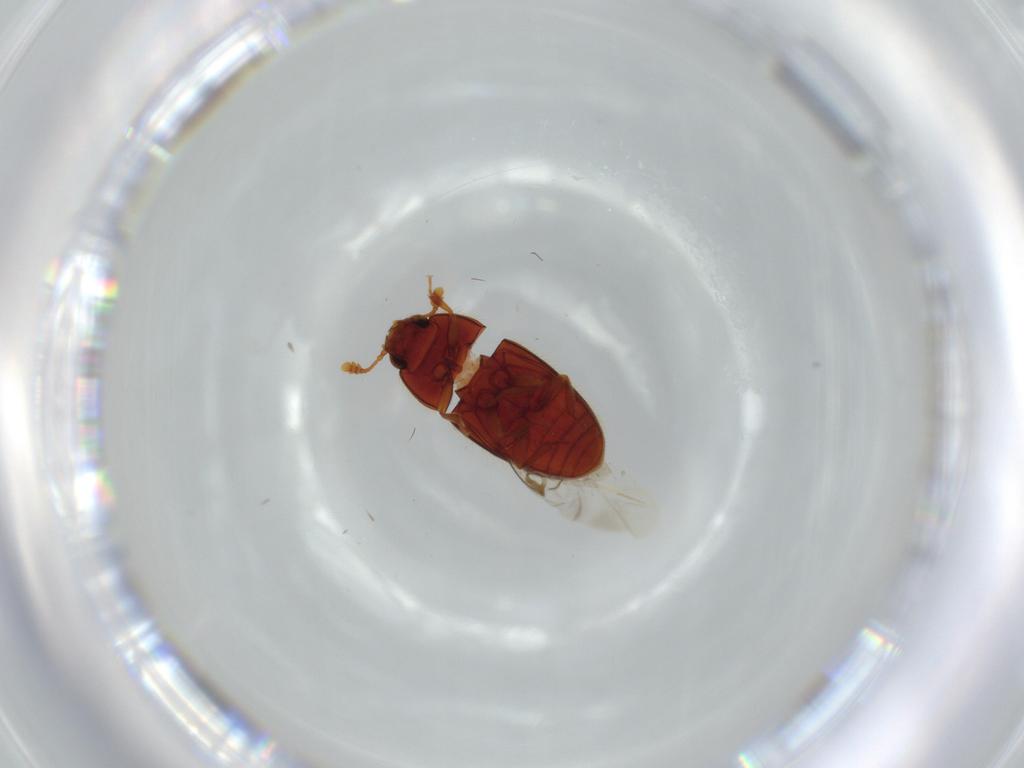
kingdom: Animalia
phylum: Arthropoda
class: Insecta
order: Coleoptera
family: Biphyllidae
